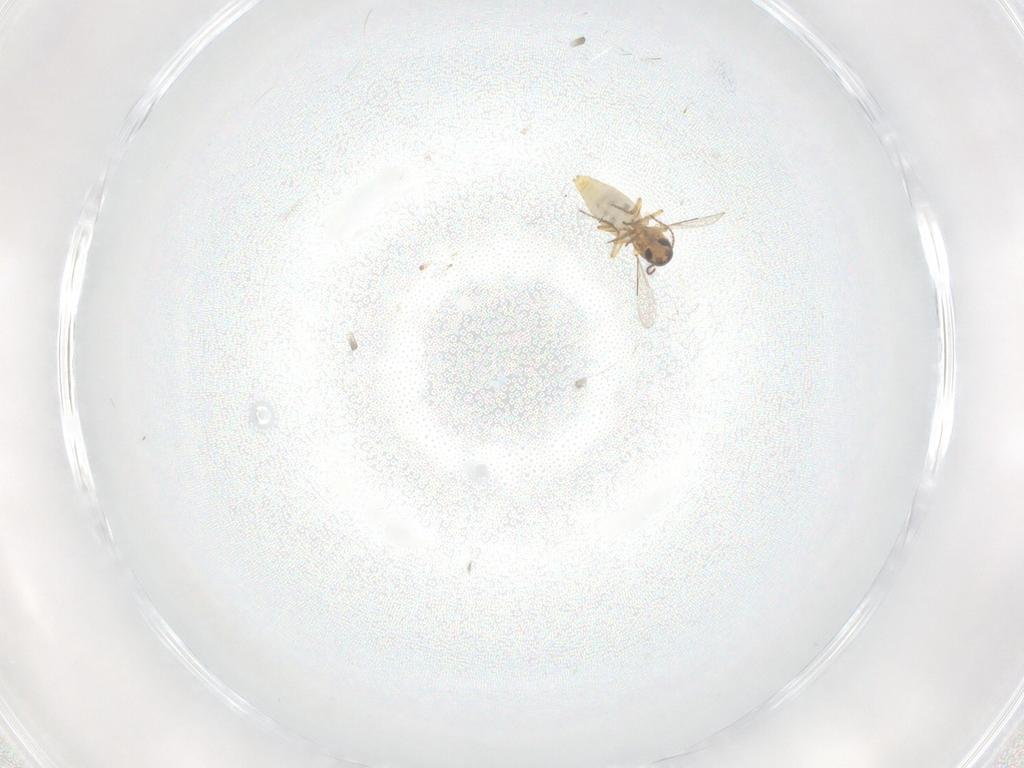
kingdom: Animalia
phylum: Arthropoda
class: Insecta
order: Diptera
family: Ceratopogonidae
